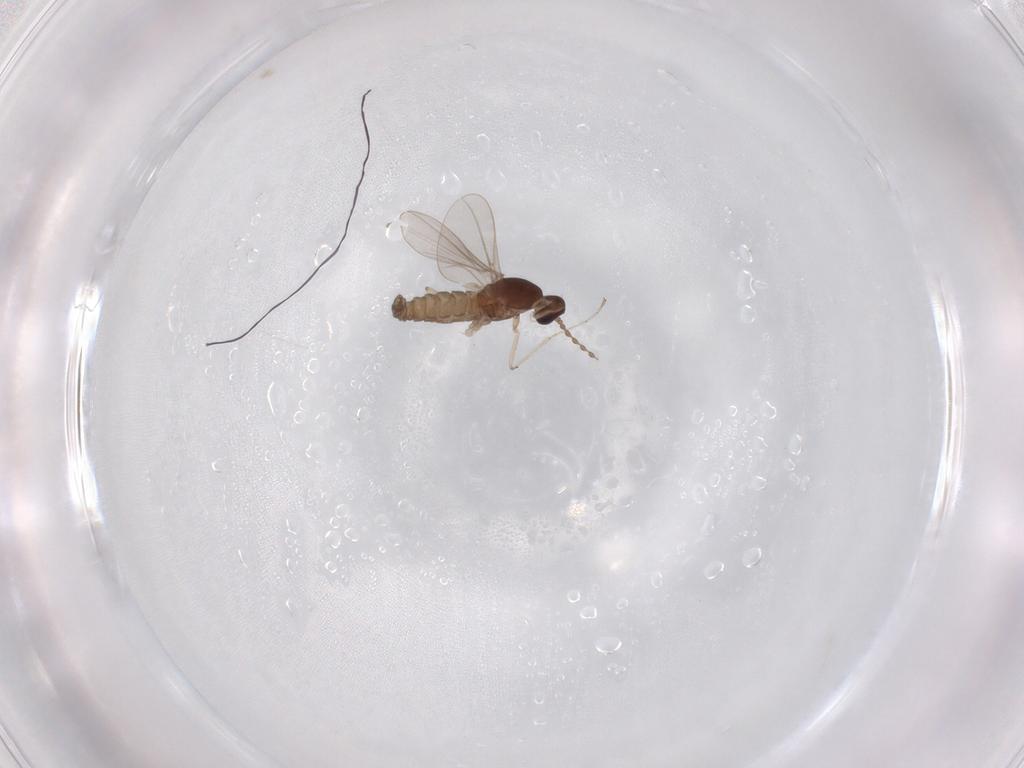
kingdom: Animalia
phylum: Arthropoda
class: Insecta
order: Diptera
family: Cecidomyiidae
